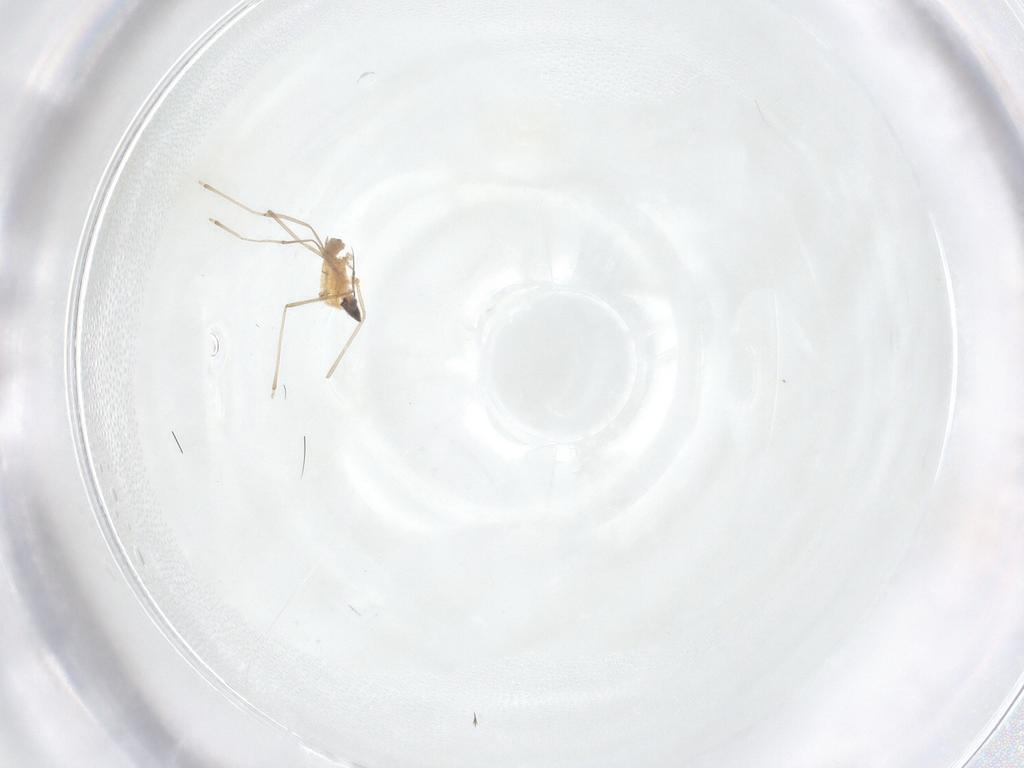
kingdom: Animalia
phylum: Arthropoda
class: Insecta
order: Diptera
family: Cecidomyiidae
